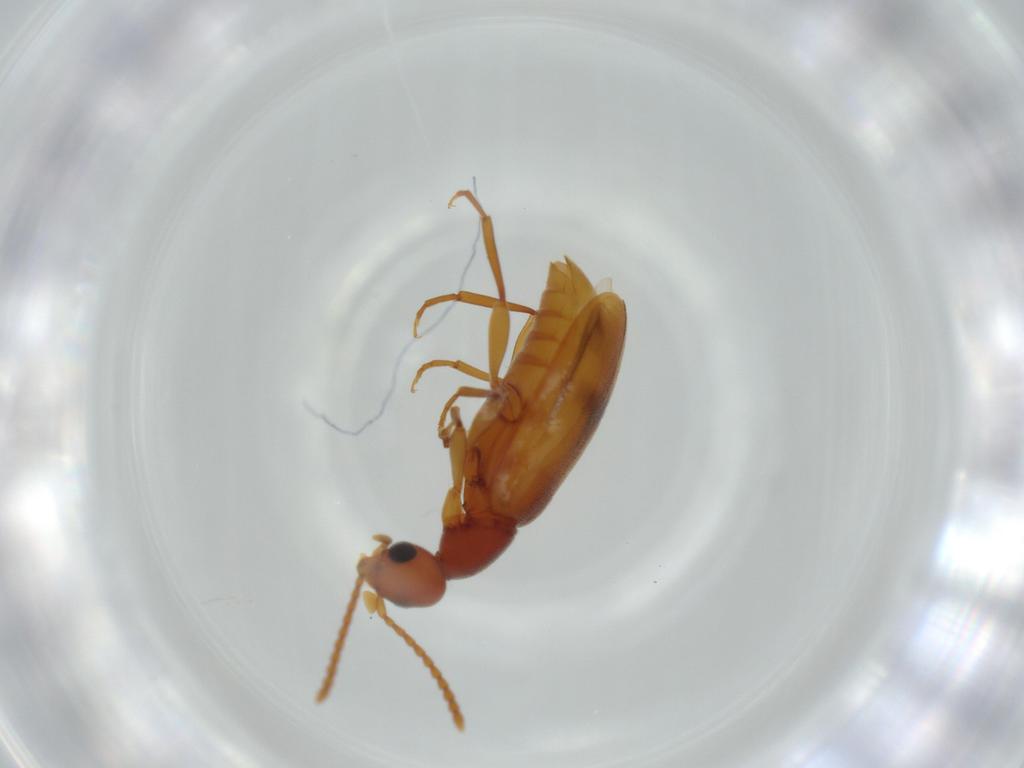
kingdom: Animalia
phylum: Arthropoda
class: Insecta
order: Coleoptera
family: Anthicidae
